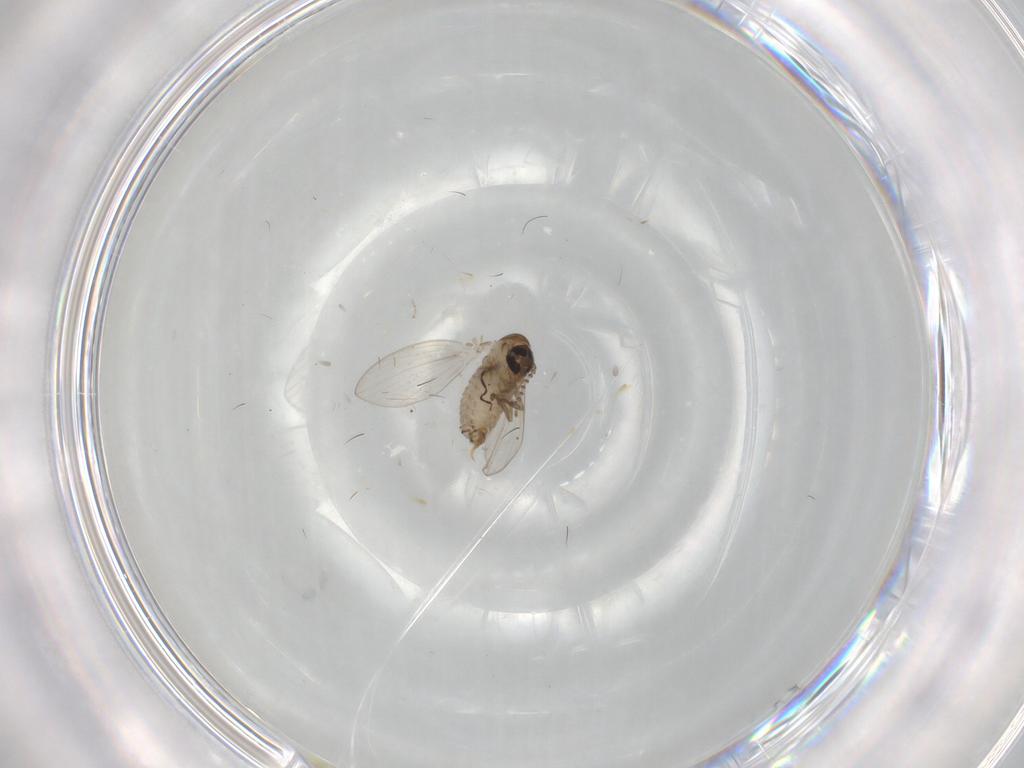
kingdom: Animalia
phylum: Arthropoda
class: Insecta
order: Diptera
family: Psychodidae
